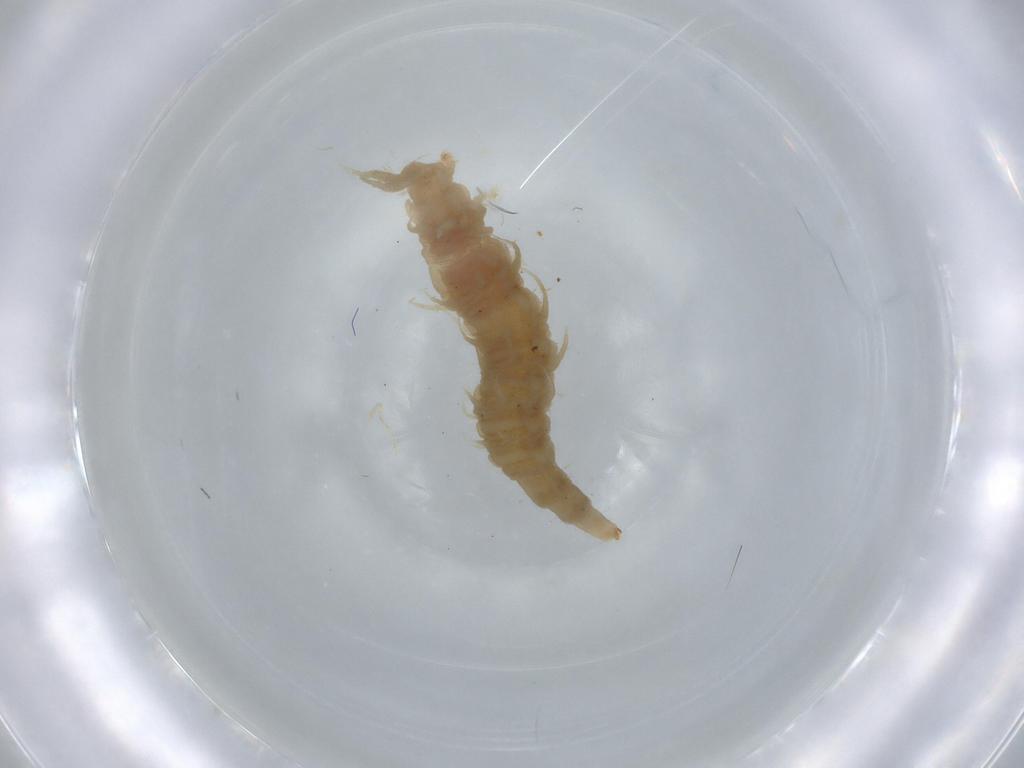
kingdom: Animalia
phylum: Arthropoda
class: Insecta
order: Diptera
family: Athericidae
